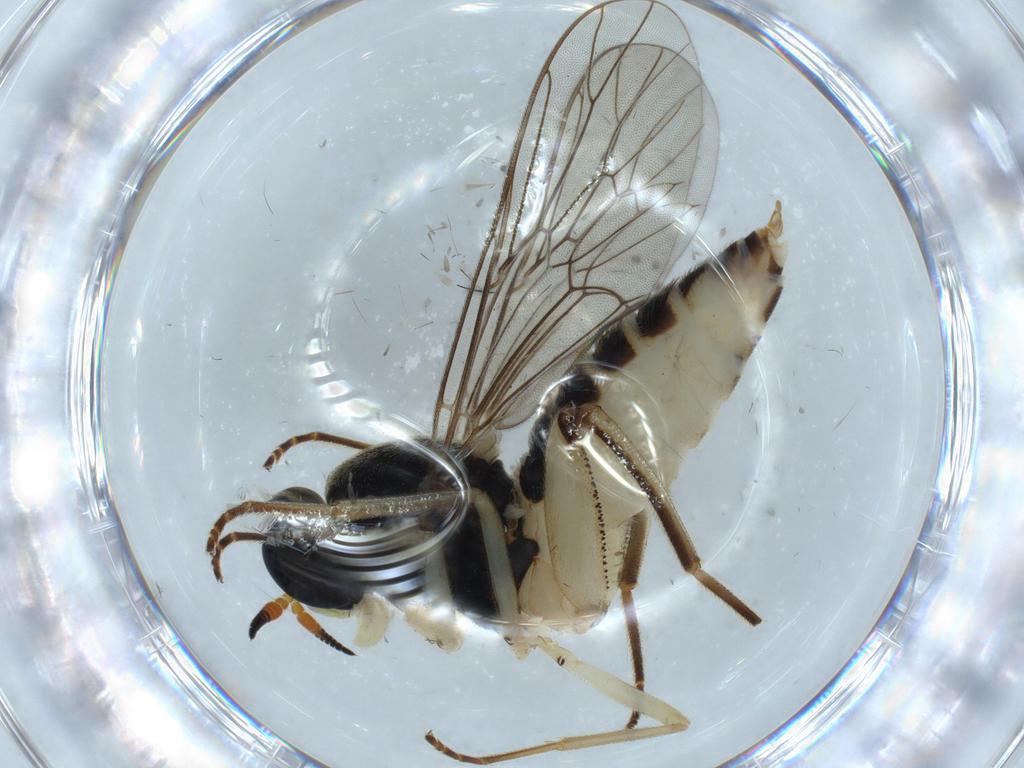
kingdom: Animalia
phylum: Arthropoda
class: Insecta
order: Diptera
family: Cecidomyiidae
